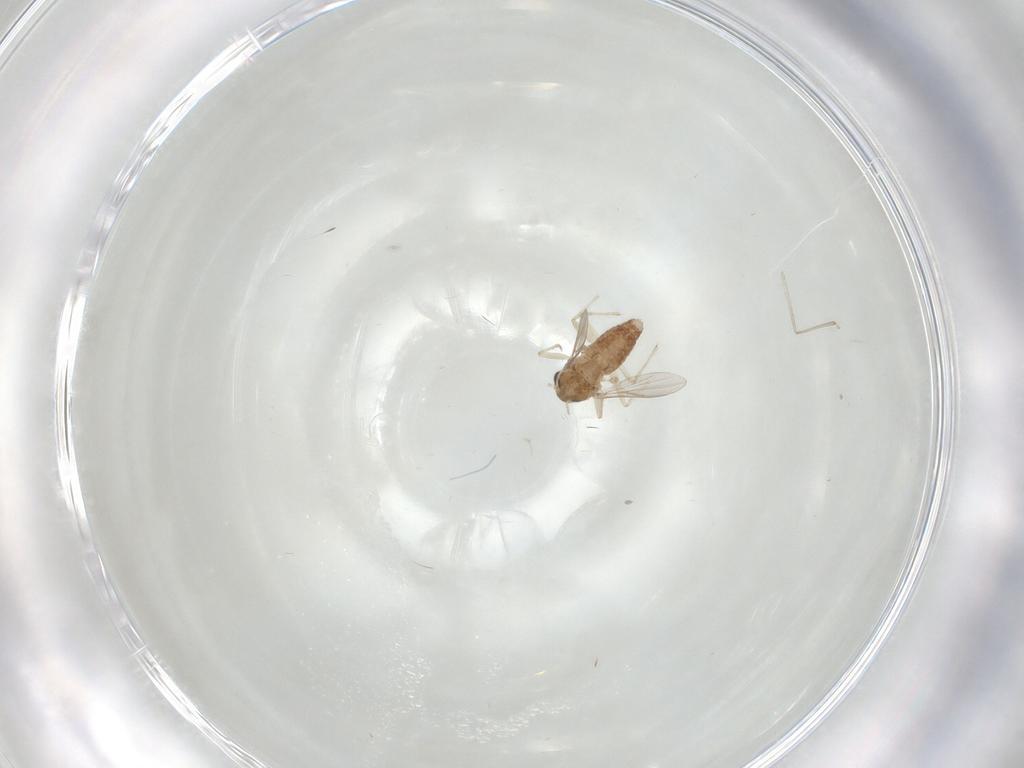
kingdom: Animalia
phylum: Arthropoda
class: Insecta
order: Diptera
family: Chironomidae
